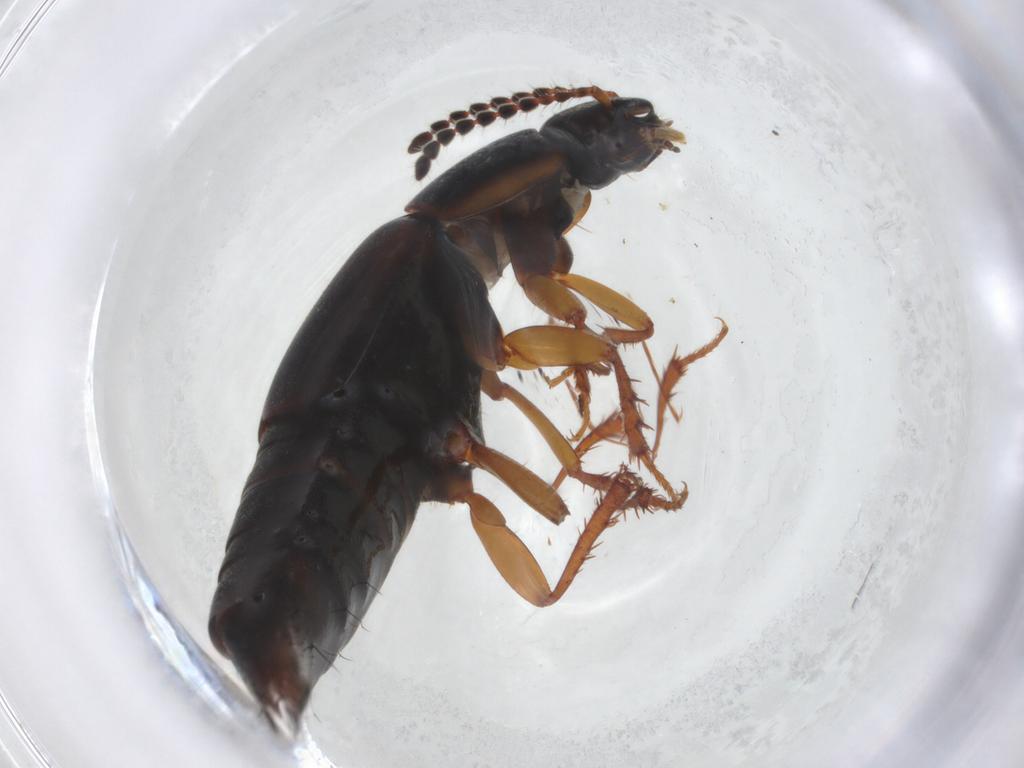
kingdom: Animalia
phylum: Arthropoda
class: Insecta
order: Coleoptera
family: Staphylinidae
